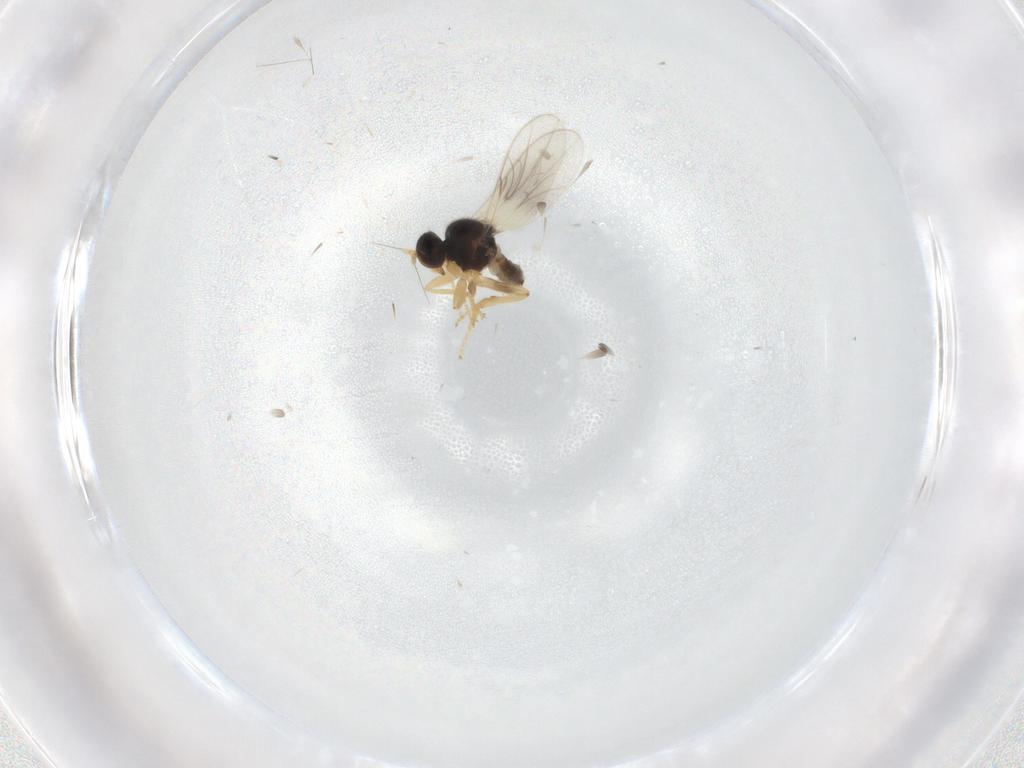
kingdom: Animalia
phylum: Arthropoda
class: Insecta
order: Diptera
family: Hybotidae
